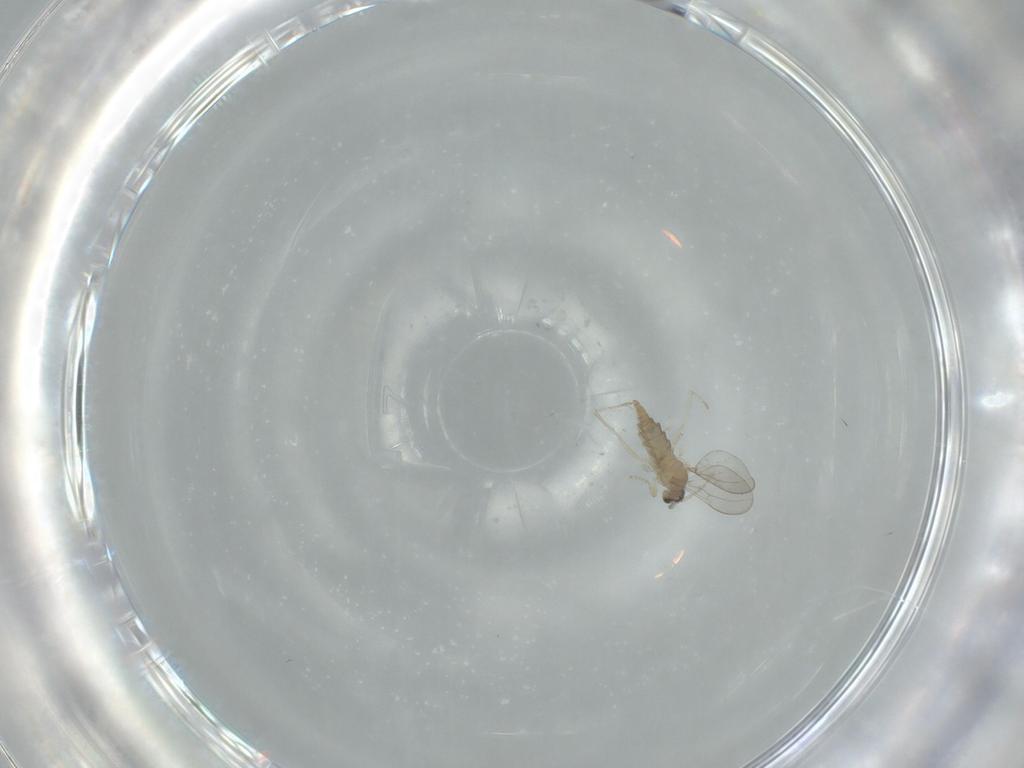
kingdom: Animalia
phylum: Arthropoda
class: Insecta
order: Diptera
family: Cecidomyiidae
